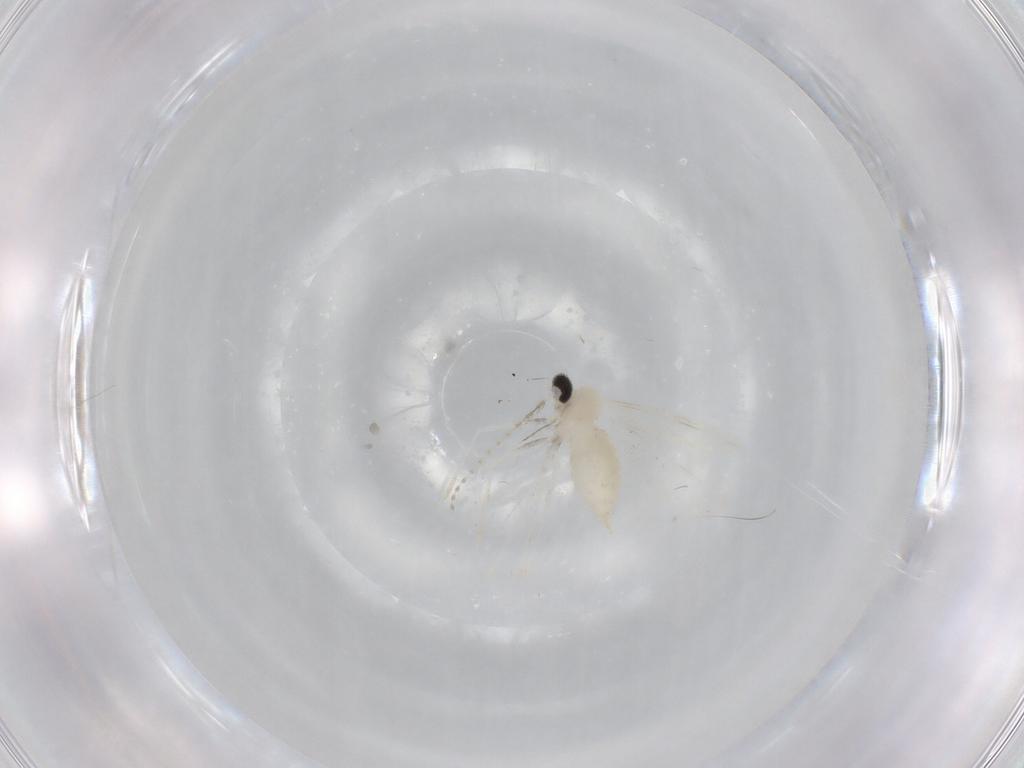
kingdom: Animalia
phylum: Arthropoda
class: Insecta
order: Diptera
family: Cecidomyiidae
